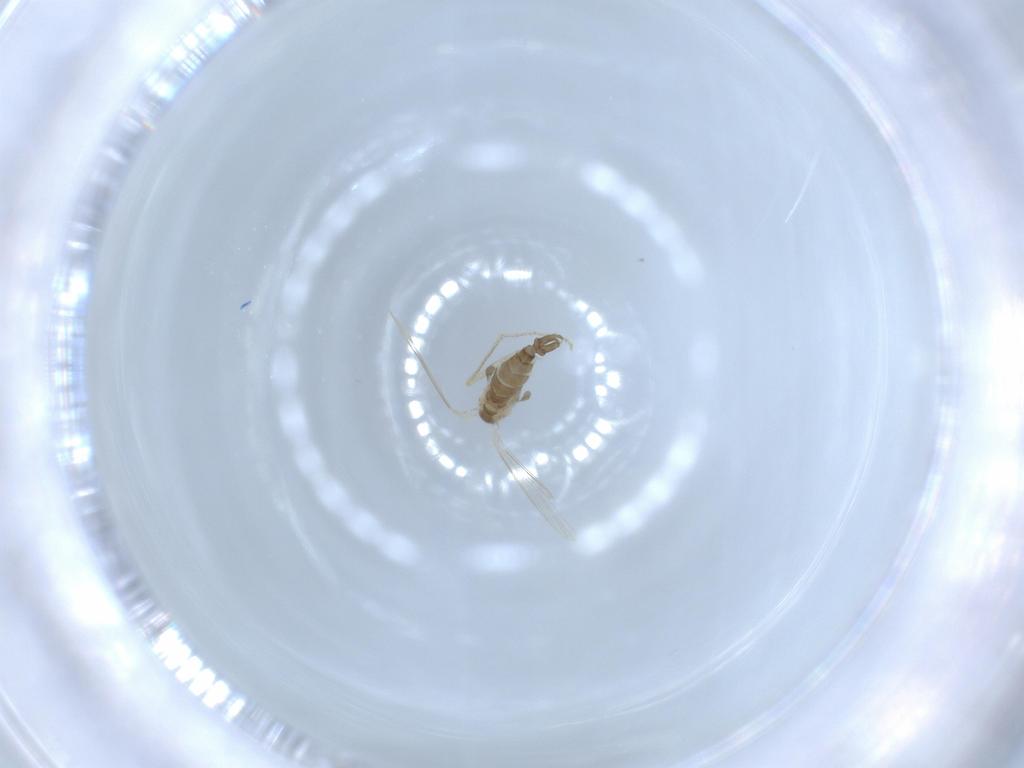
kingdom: Animalia
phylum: Arthropoda
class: Insecta
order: Diptera
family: Psychodidae
